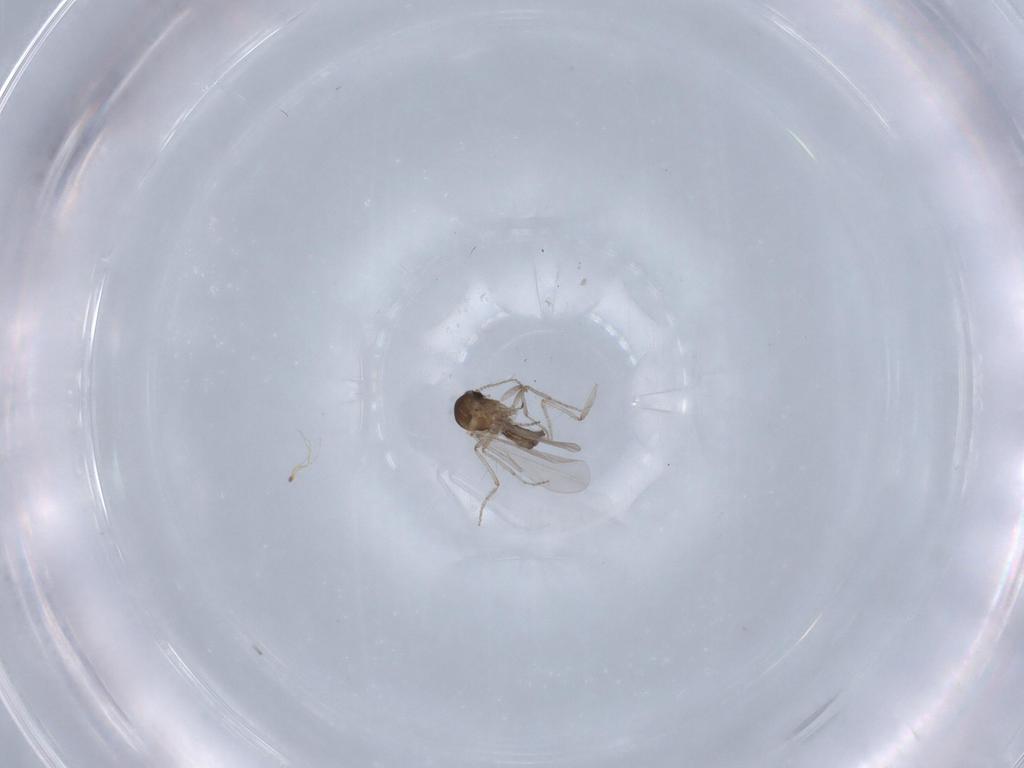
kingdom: Animalia
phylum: Arthropoda
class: Insecta
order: Diptera
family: Ceratopogonidae
